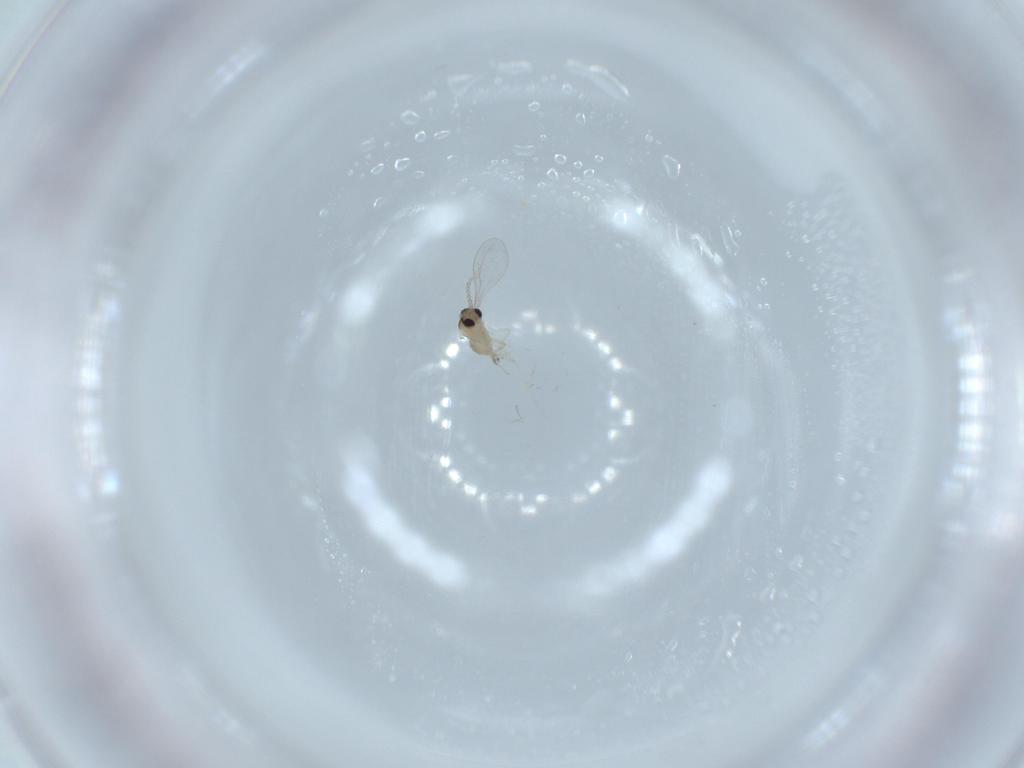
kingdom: Animalia
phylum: Arthropoda
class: Insecta
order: Diptera
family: Cecidomyiidae
